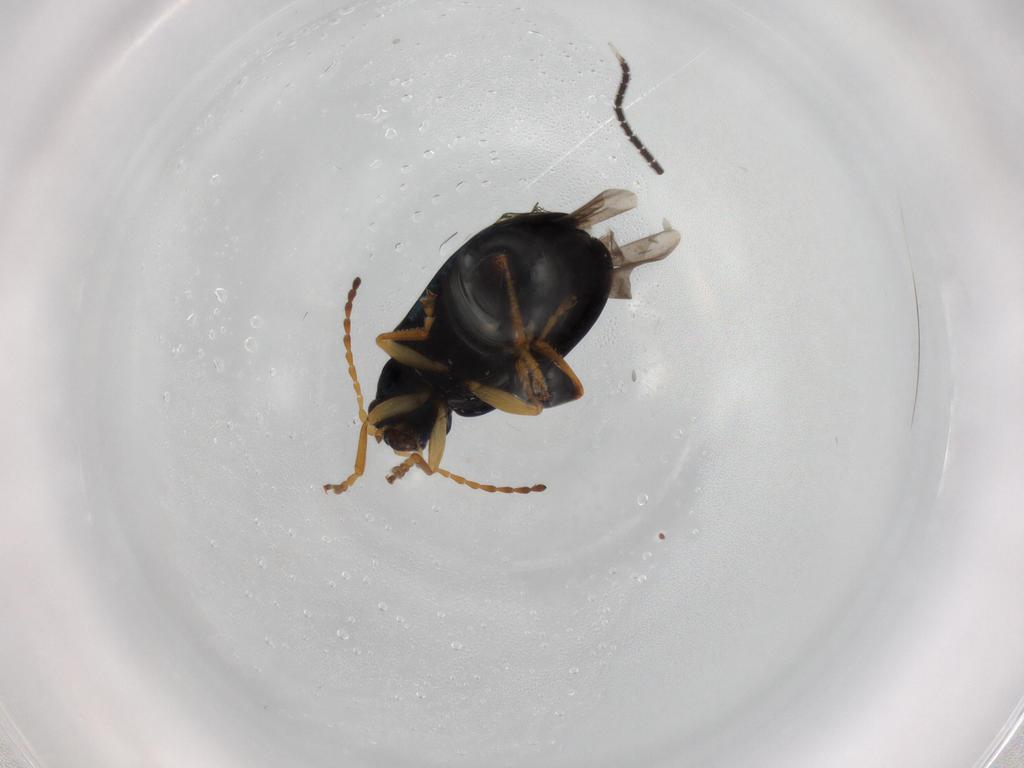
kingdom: Animalia
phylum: Arthropoda
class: Insecta
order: Coleoptera
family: Chrysomelidae
